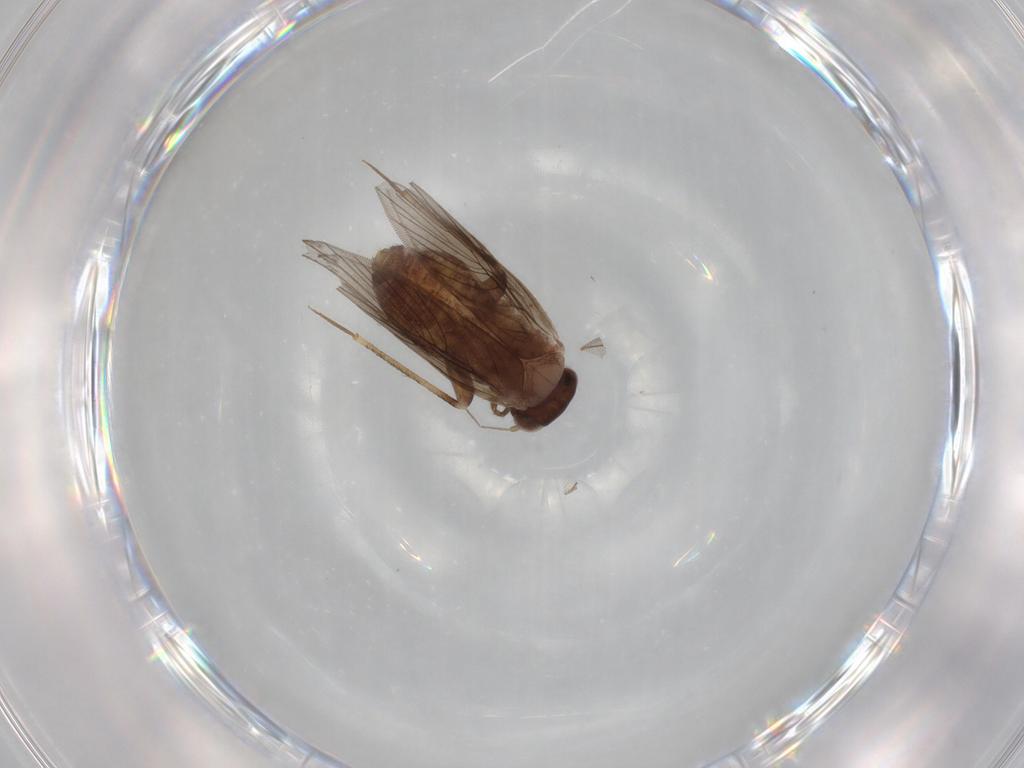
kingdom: Animalia
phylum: Arthropoda
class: Insecta
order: Psocodea
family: Lepidopsocidae
